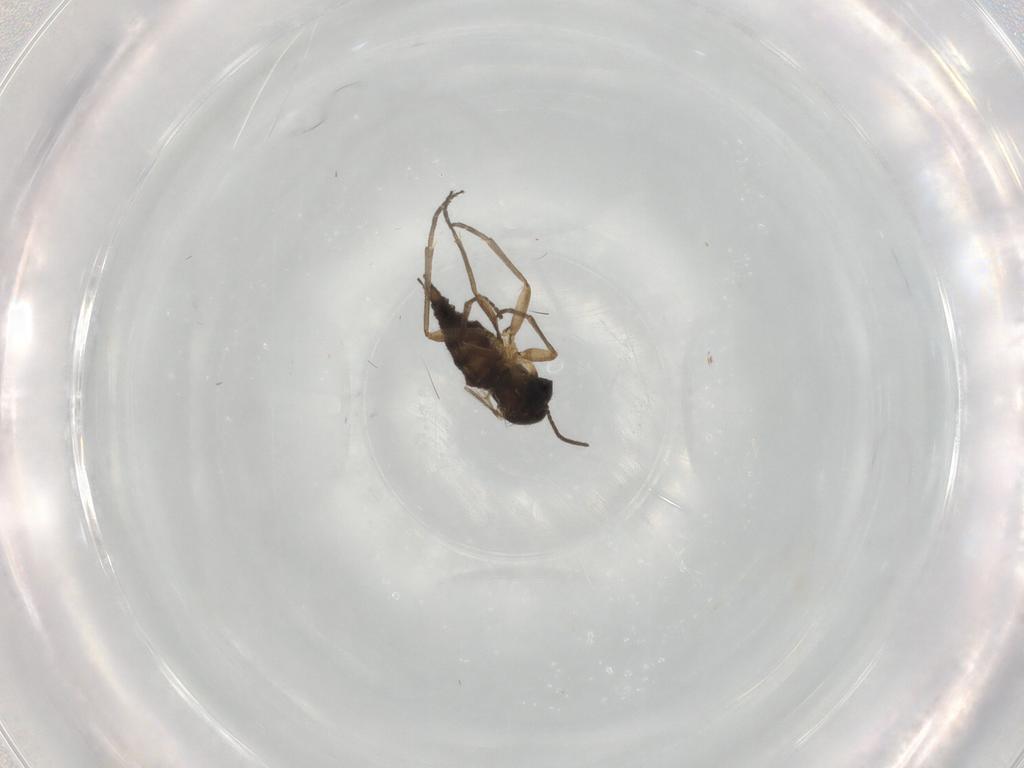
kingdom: Animalia
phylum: Arthropoda
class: Insecta
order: Diptera
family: Sciaridae
